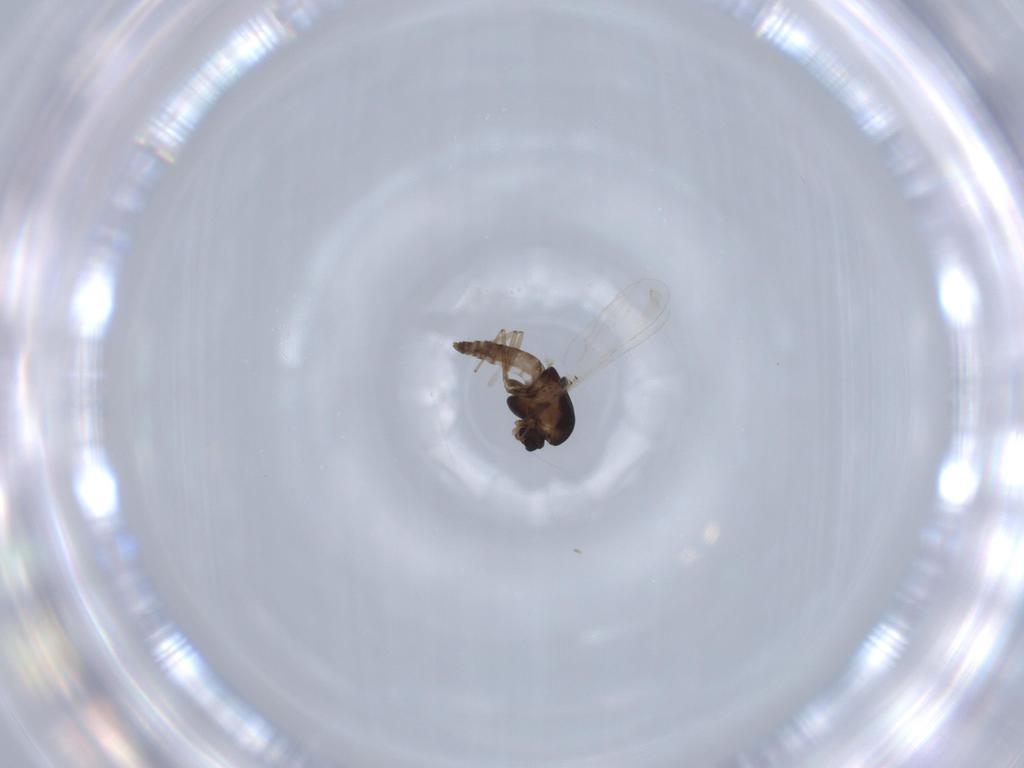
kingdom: Animalia
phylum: Arthropoda
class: Insecta
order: Diptera
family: Chironomidae
